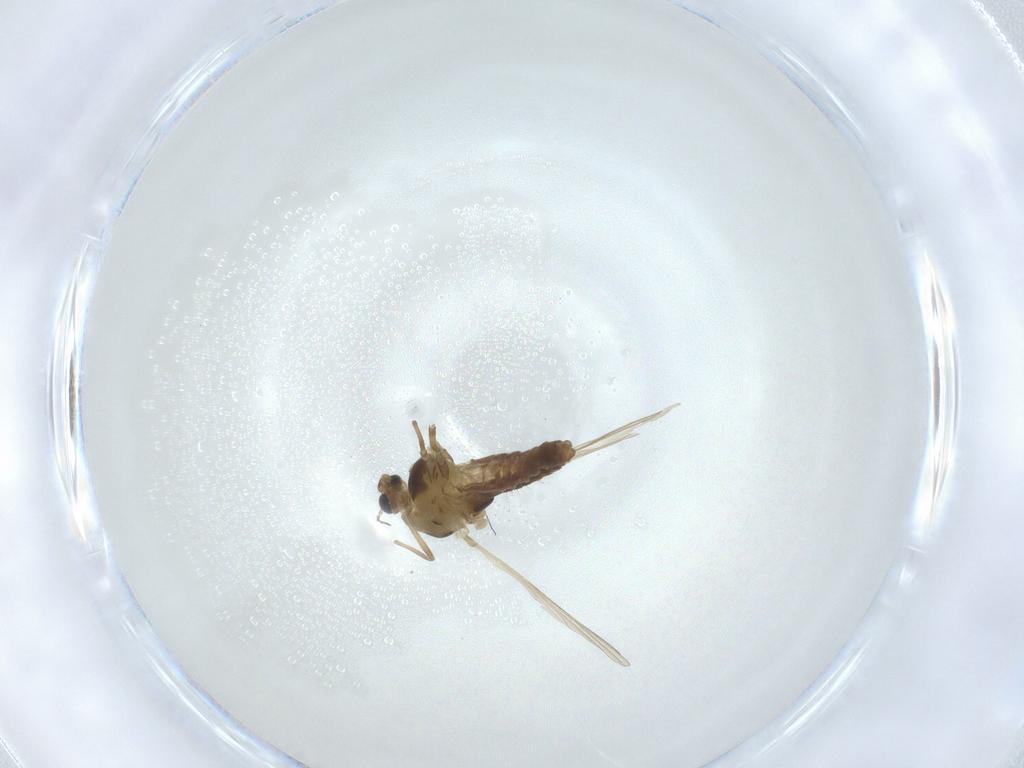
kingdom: Animalia
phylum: Arthropoda
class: Insecta
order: Diptera
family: Chironomidae
